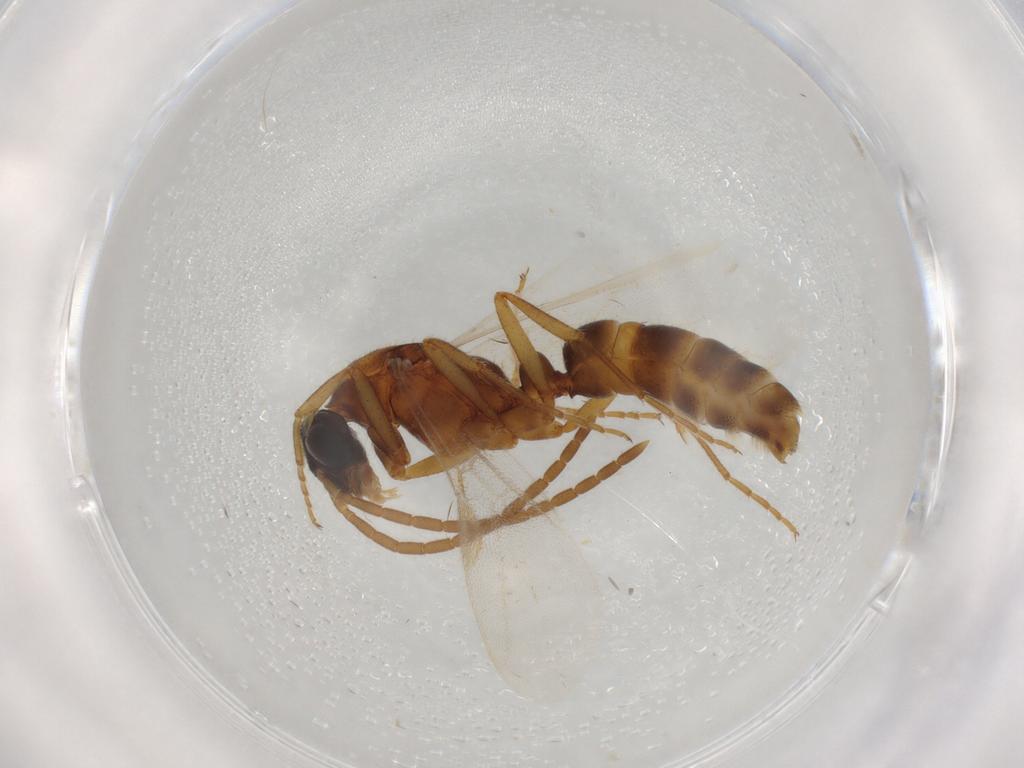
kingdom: Animalia
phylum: Arthropoda
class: Insecta
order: Hymenoptera
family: Formicidae
